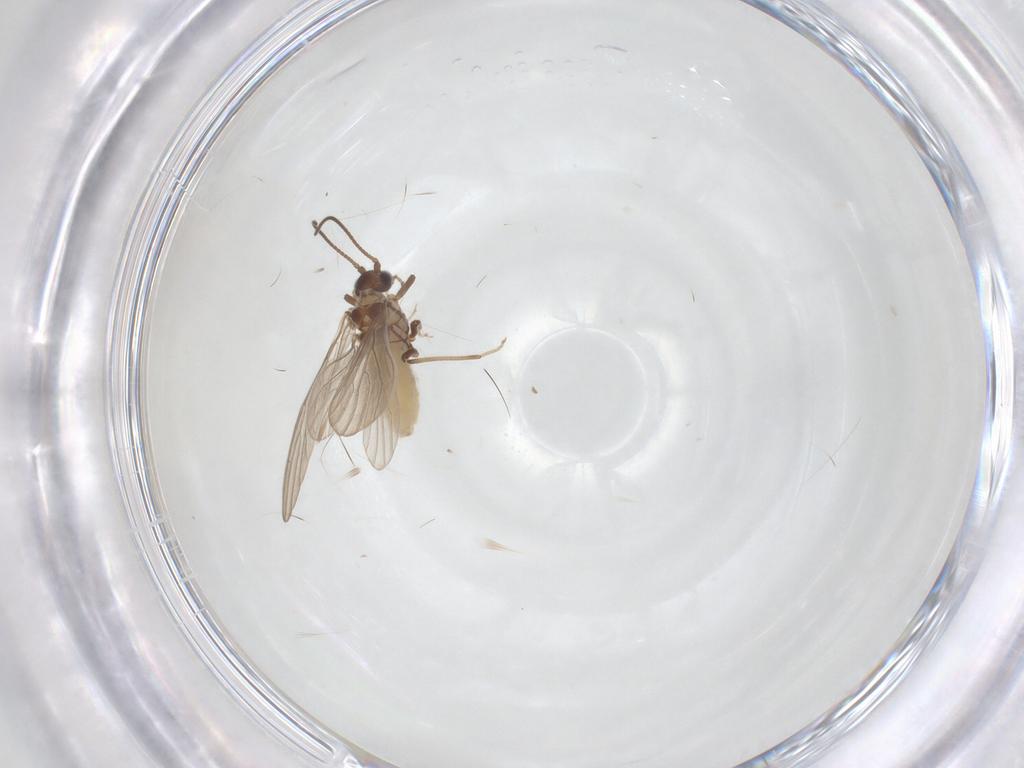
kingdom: Animalia
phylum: Arthropoda
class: Insecta
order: Neuroptera
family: Coniopterygidae
